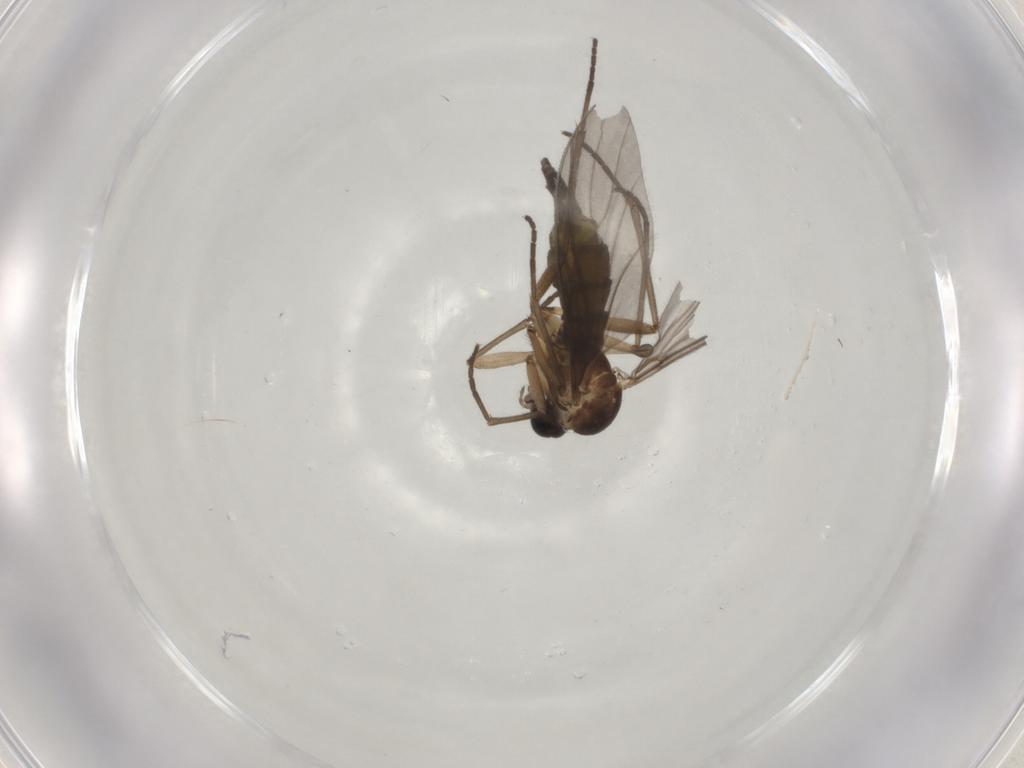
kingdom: Animalia
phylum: Arthropoda
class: Insecta
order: Diptera
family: Sciaridae
